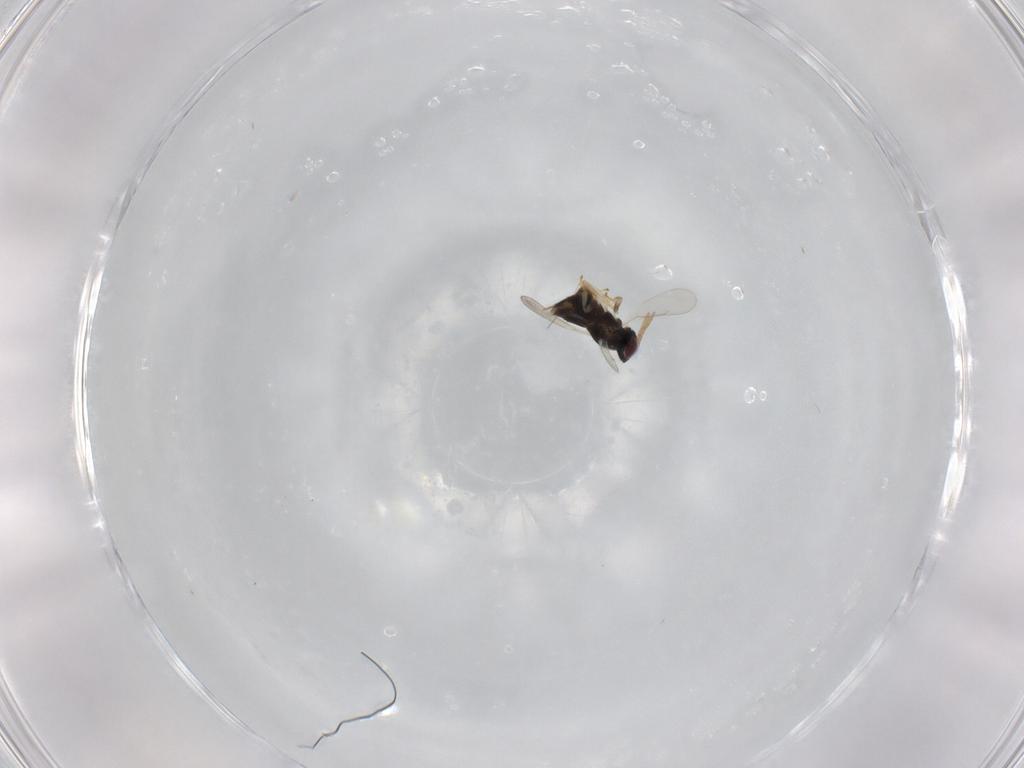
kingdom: Animalia
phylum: Arthropoda
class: Insecta
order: Hymenoptera
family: Aphelinidae
